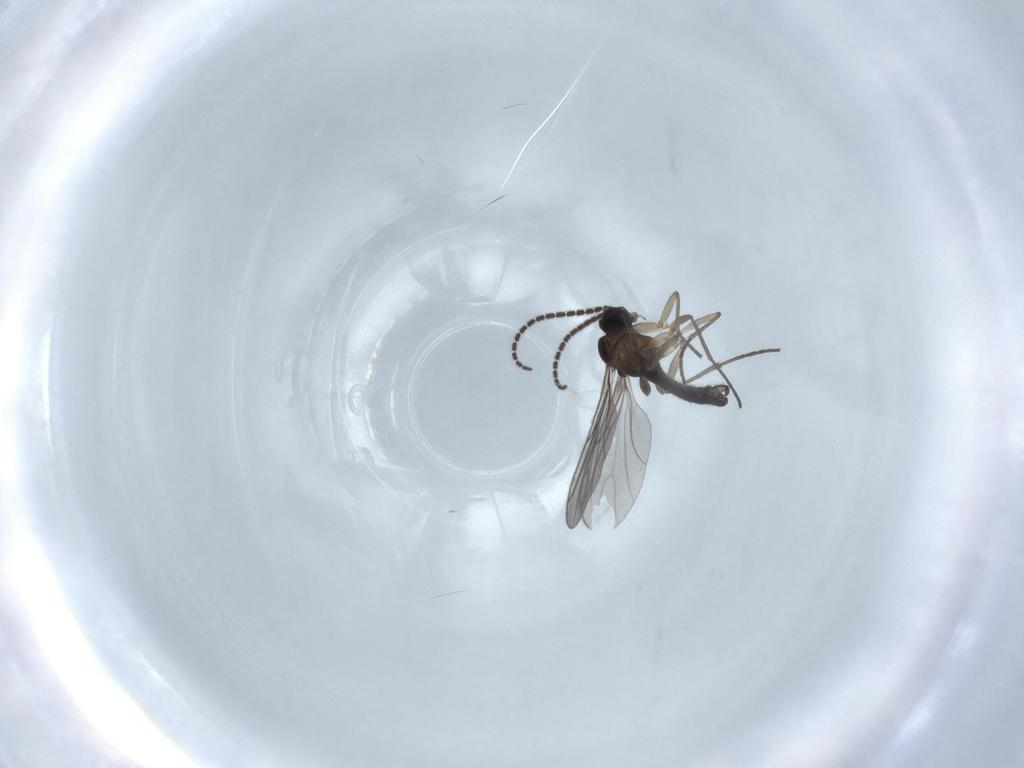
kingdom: Animalia
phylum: Arthropoda
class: Insecta
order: Diptera
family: Sciaridae
